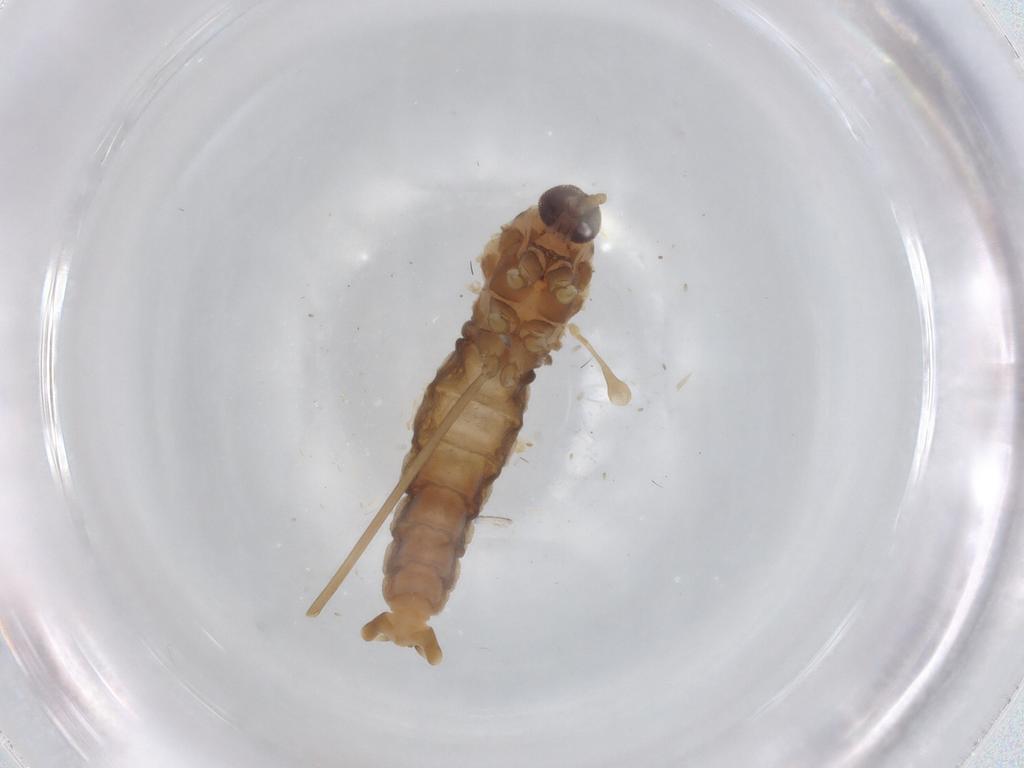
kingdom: Animalia
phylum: Arthropoda
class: Insecta
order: Diptera
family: Glossinidae
